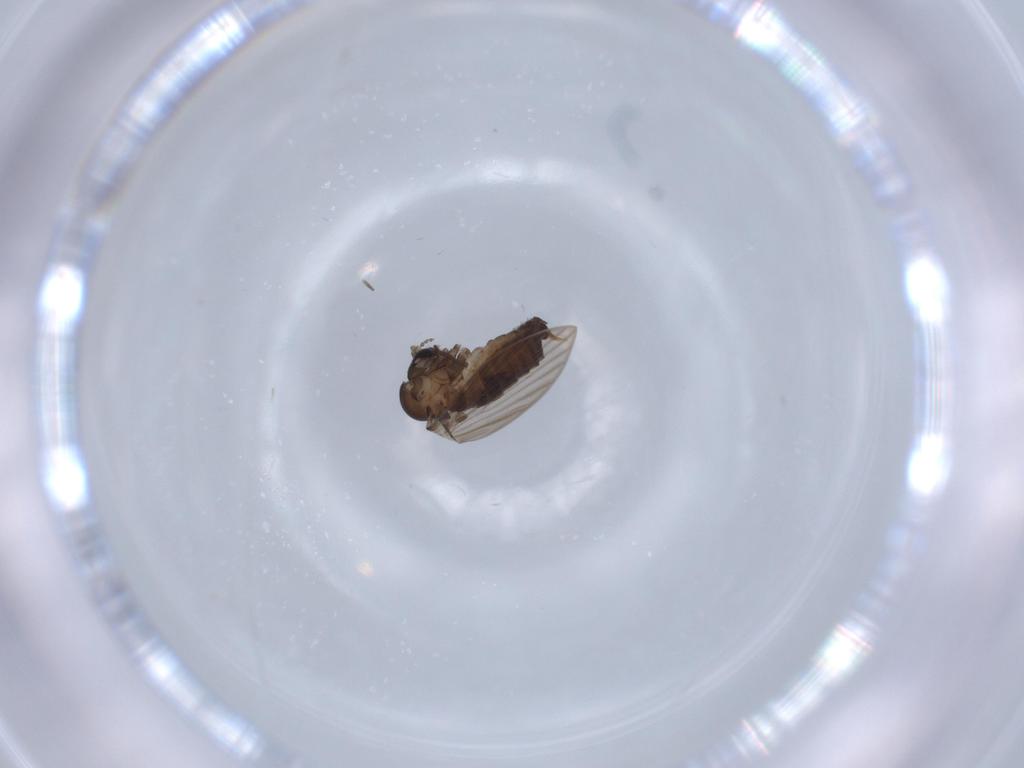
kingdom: Animalia
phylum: Arthropoda
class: Insecta
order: Diptera
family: Psychodidae
